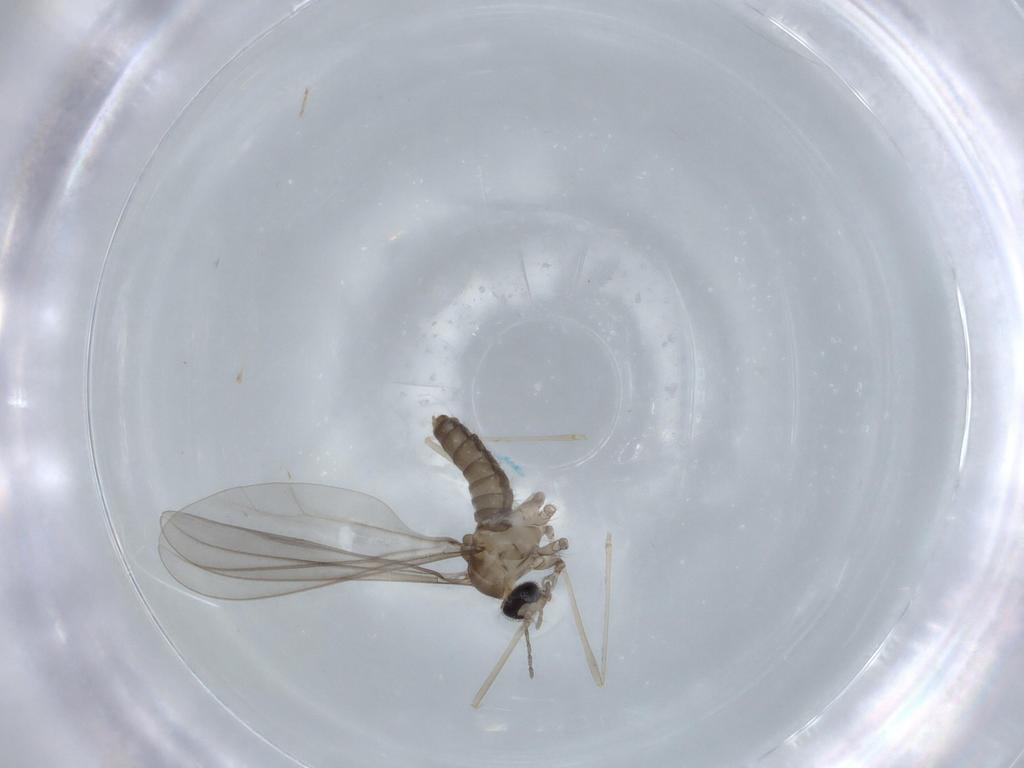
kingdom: Animalia
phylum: Arthropoda
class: Insecta
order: Diptera
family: Cecidomyiidae
